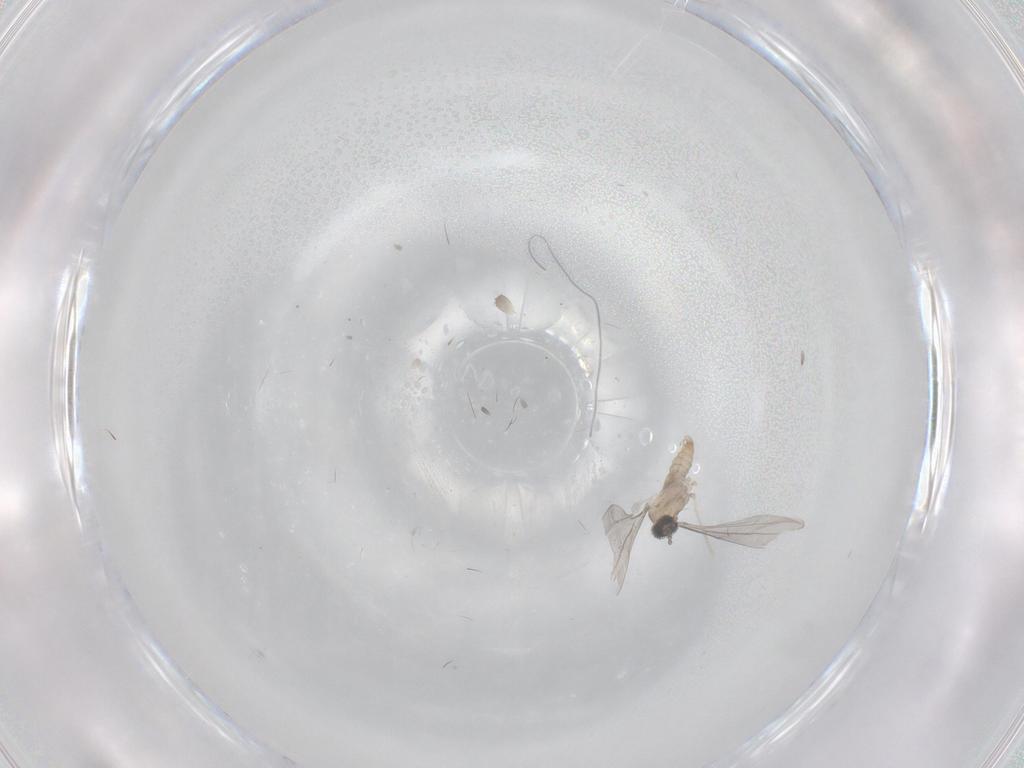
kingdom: Animalia
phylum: Arthropoda
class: Insecta
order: Diptera
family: Cecidomyiidae
